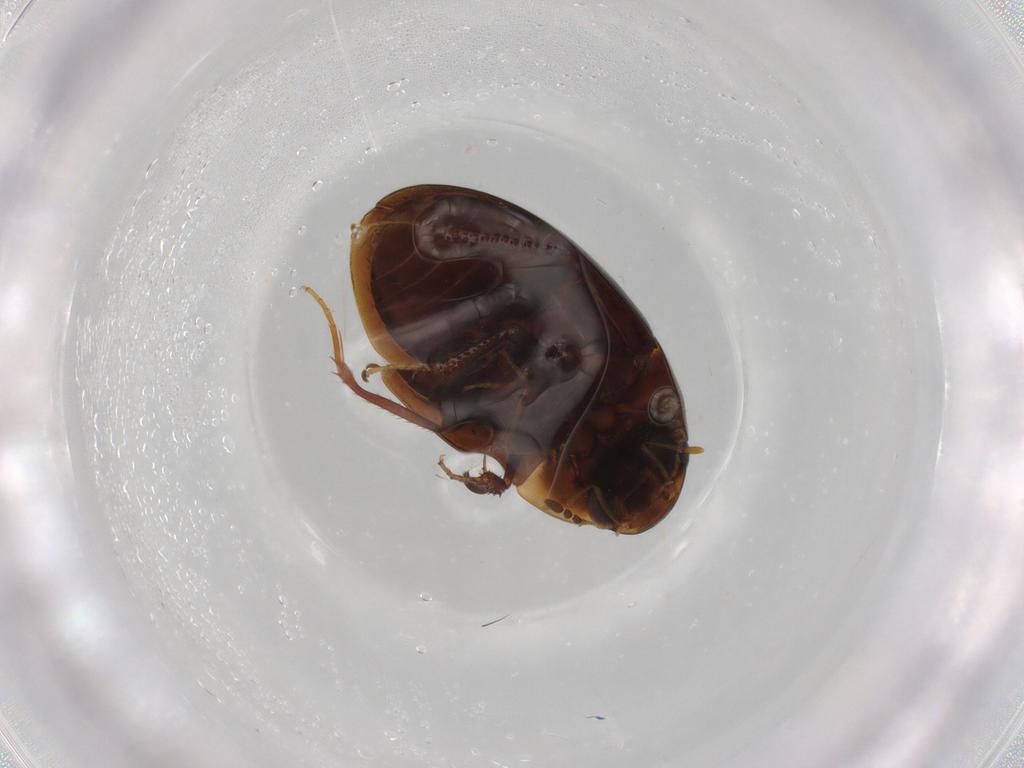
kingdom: Animalia
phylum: Arthropoda
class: Insecta
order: Coleoptera
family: Hydrophilidae
